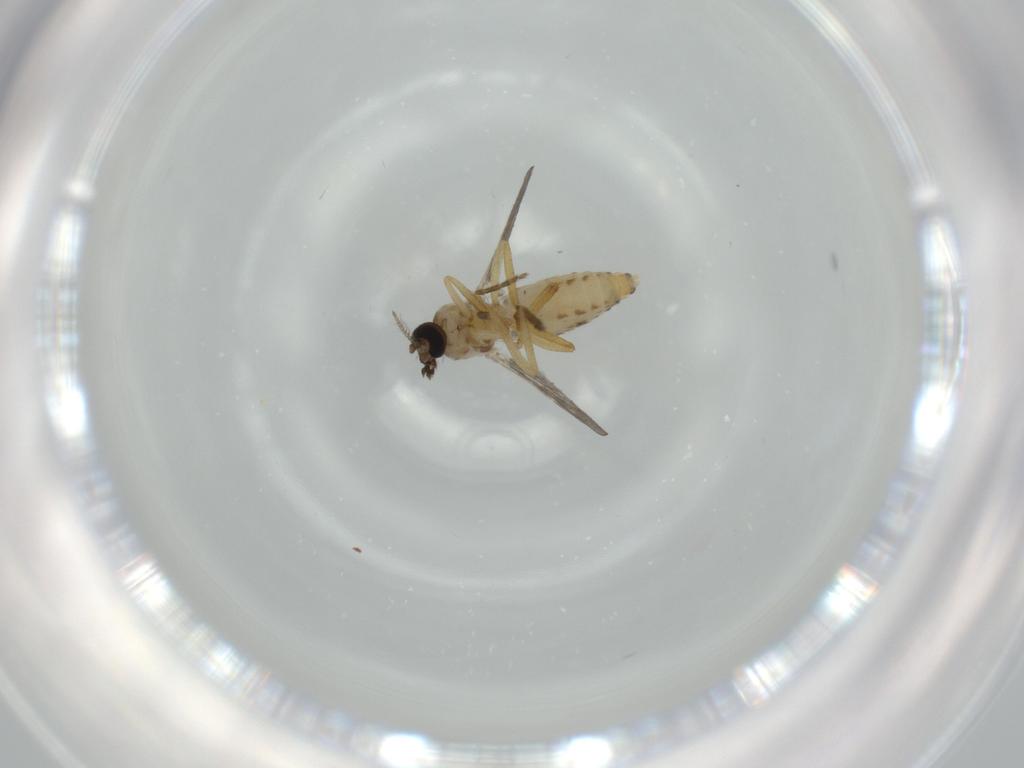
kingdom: Animalia
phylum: Arthropoda
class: Insecta
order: Diptera
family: Ceratopogonidae
